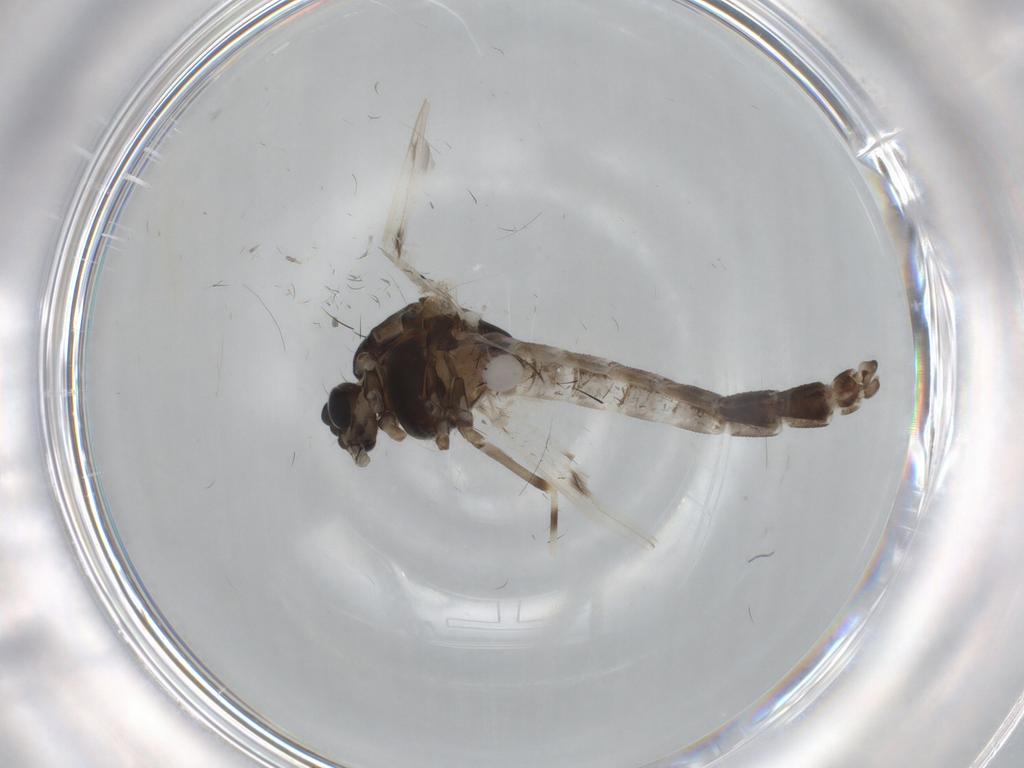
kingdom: Animalia
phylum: Arthropoda
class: Insecta
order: Diptera
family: Chironomidae
